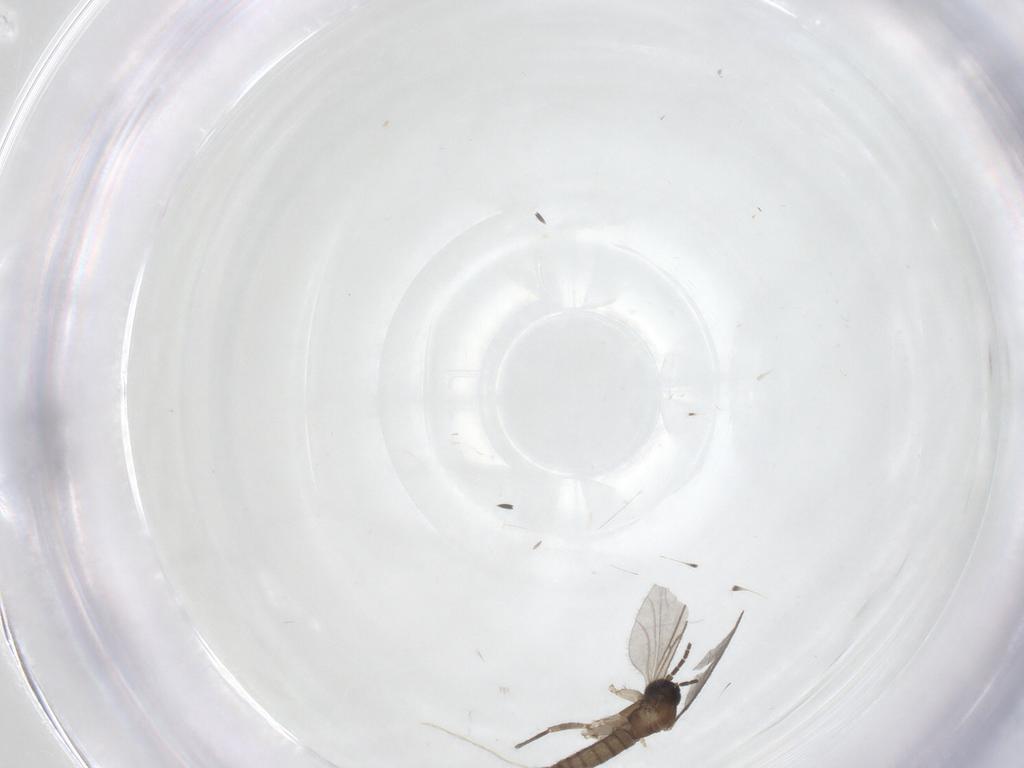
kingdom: Animalia
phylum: Arthropoda
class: Insecta
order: Diptera
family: Sciaridae
